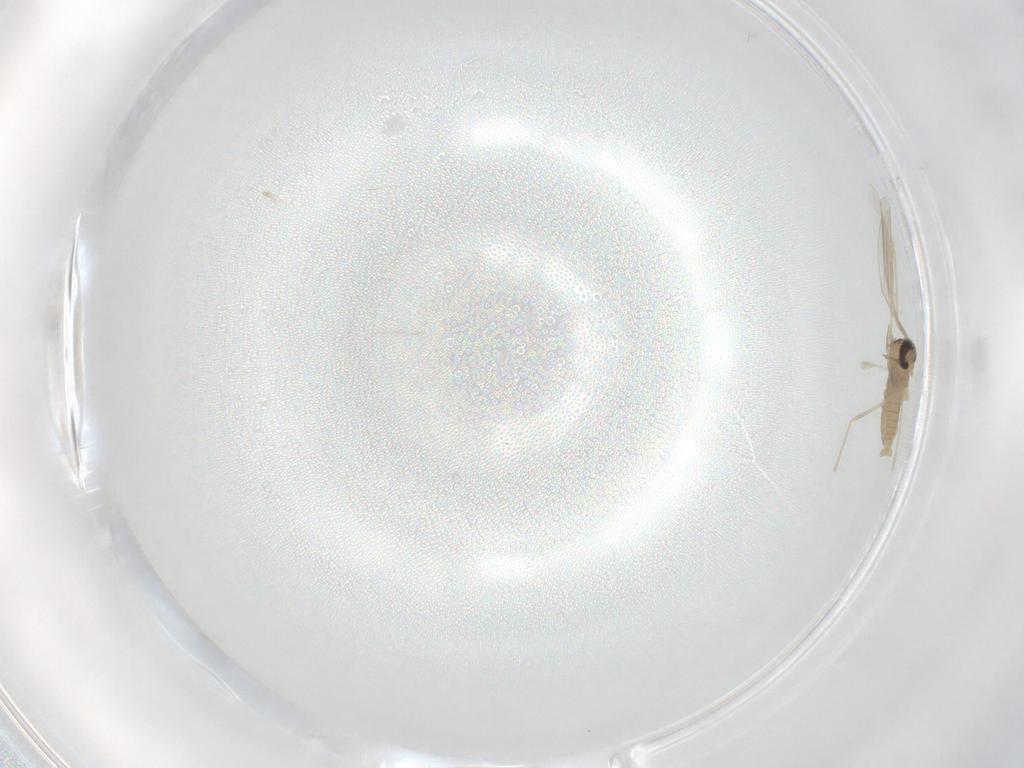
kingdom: Animalia
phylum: Arthropoda
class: Insecta
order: Diptera
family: Cecidomyiidae
